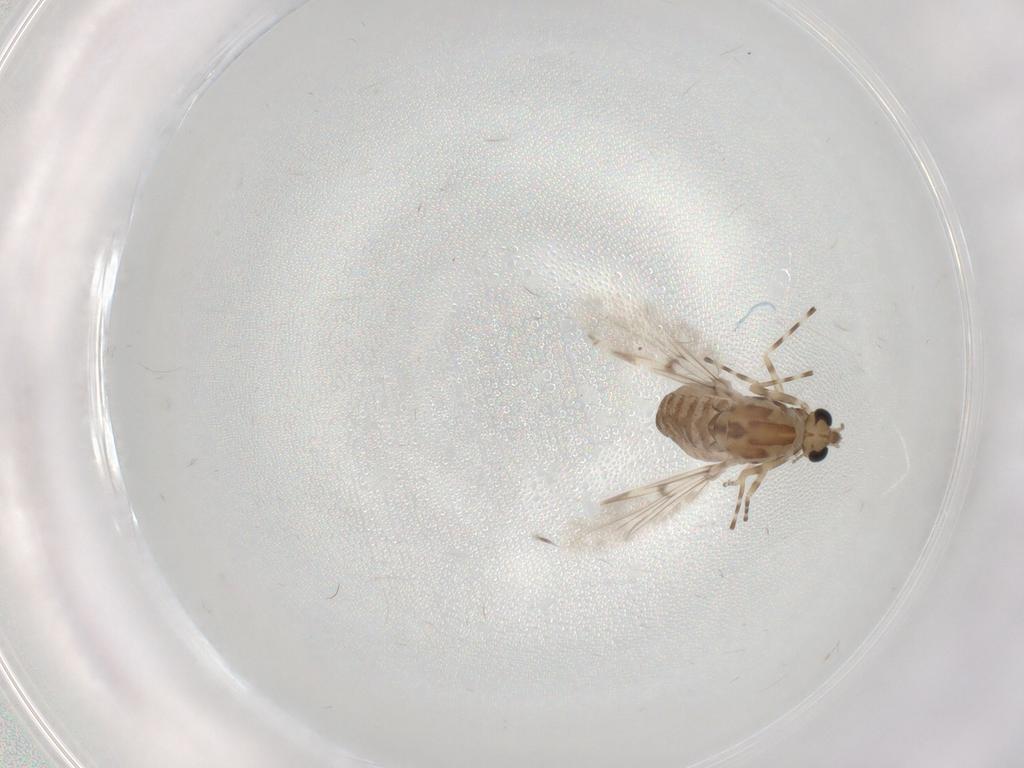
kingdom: Animalia
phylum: Arthropoda
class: Insecta
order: Diptera
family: Chironomidae
